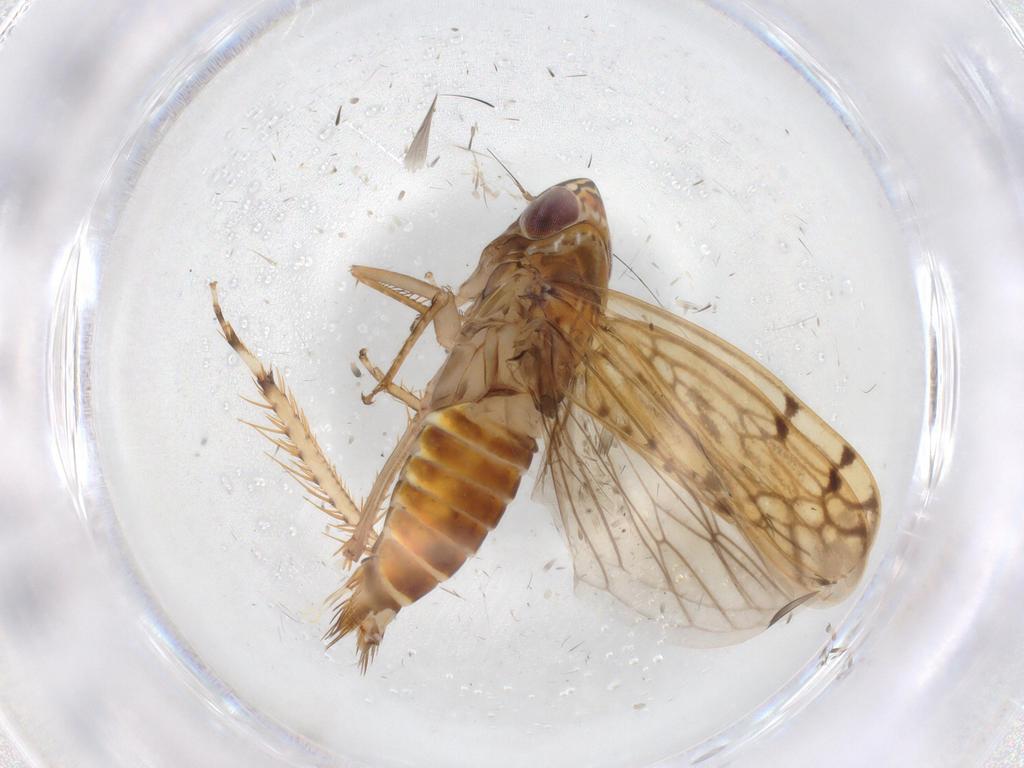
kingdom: Animalia
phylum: Arthropoda
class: Insecta
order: Hemiptera
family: Cicadellidae
